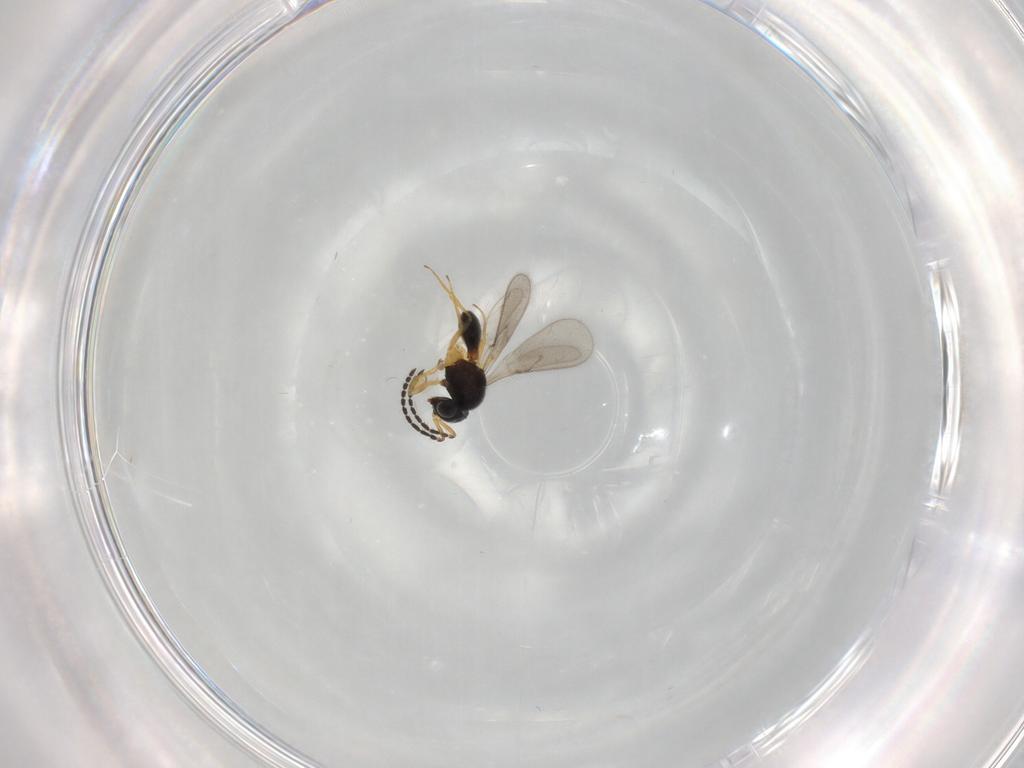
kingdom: Animalia
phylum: Arthropoda
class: Insecta
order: Hymenoptera
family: Scelionidae
